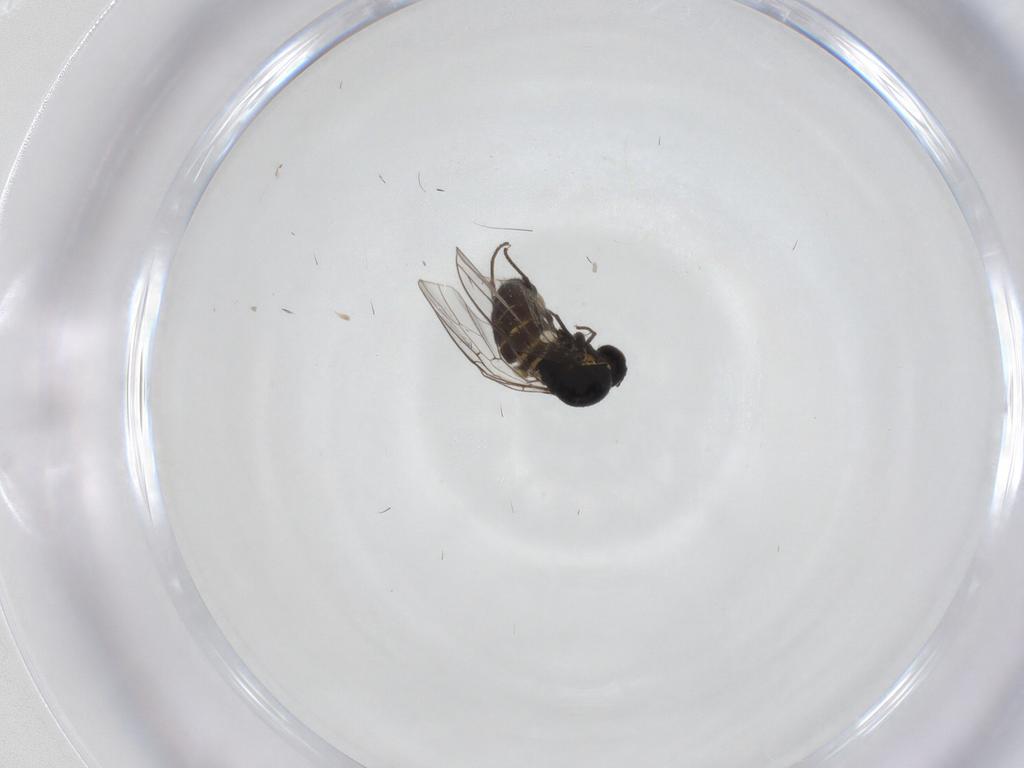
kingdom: Animalia
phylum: Arthropoda
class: Insecta
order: Diptera
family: Cecidomyiidae
